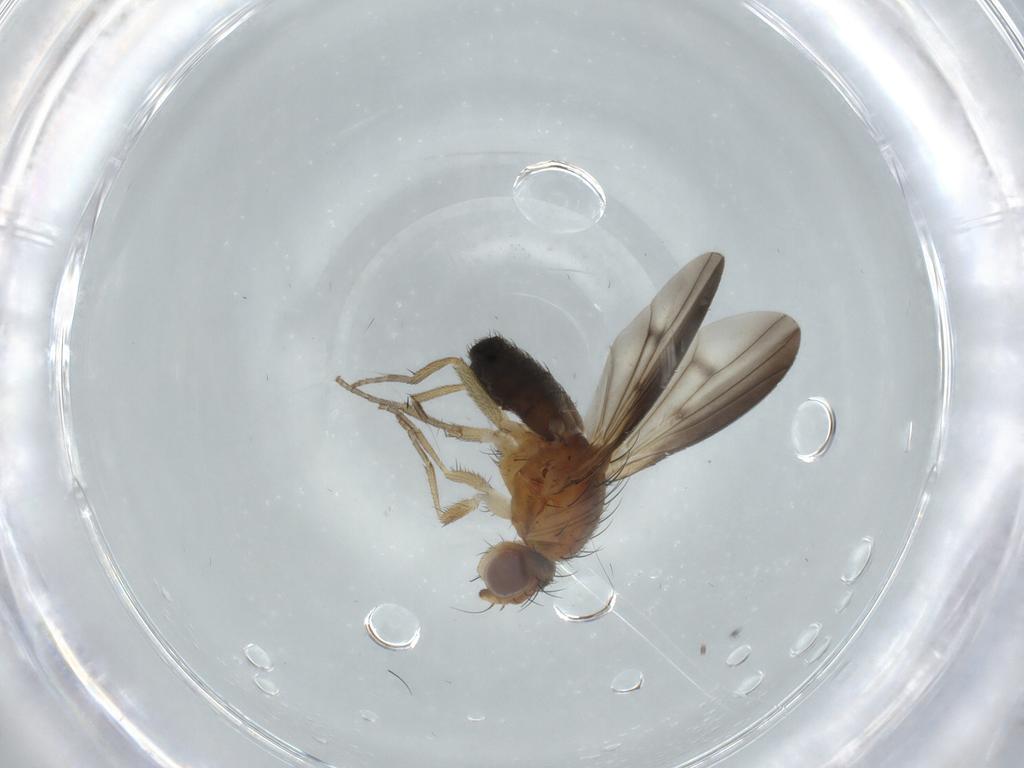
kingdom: Animalia
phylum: Arthropoda
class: Insecta
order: Diptera
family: Heleomyzidae
